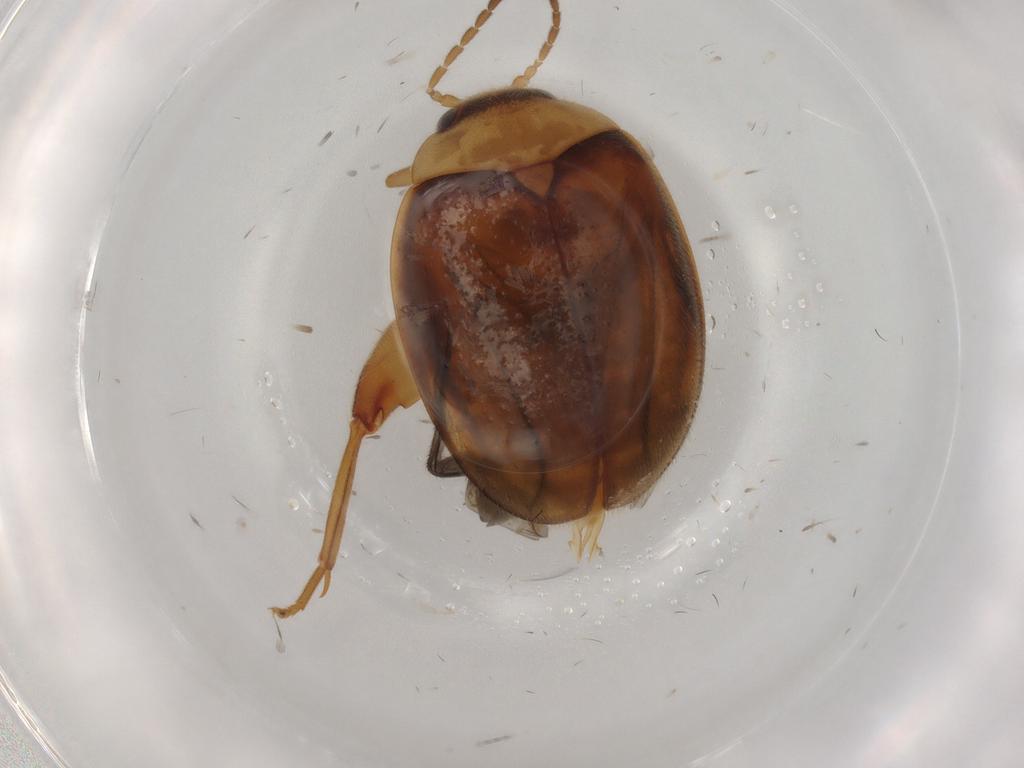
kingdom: Animalia
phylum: Arthropoda
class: Insecta
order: Coleoptera
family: Scirtidae
